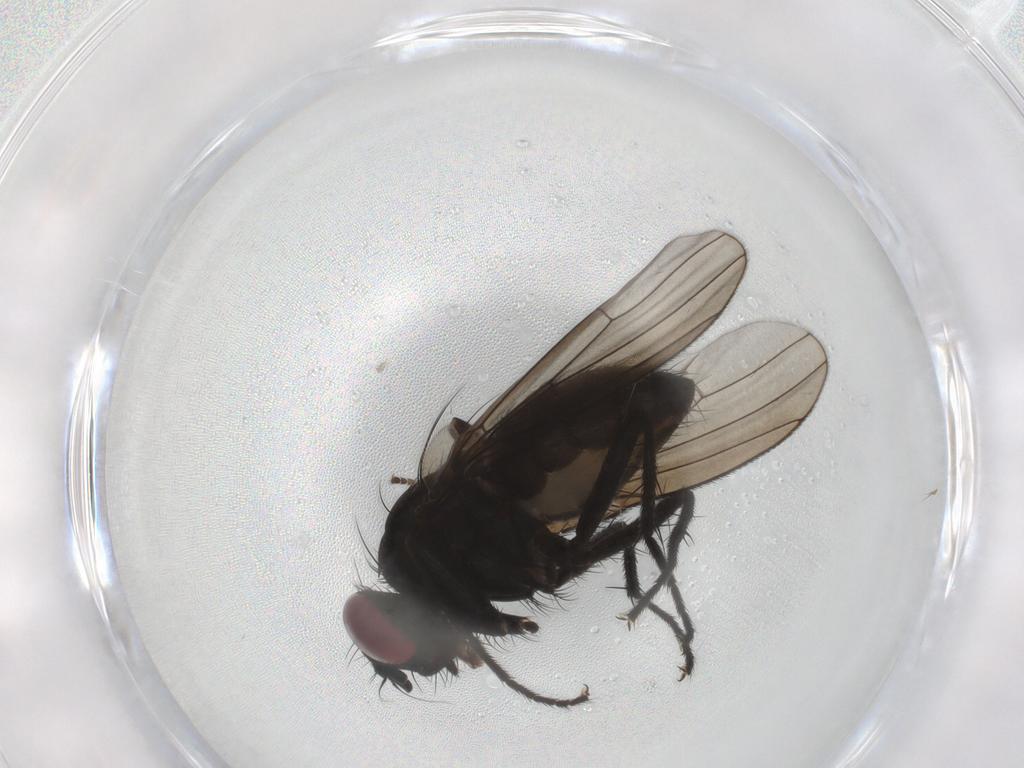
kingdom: Animalia
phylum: Arthropoda
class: Insecta
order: Diptera
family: Muscidae
